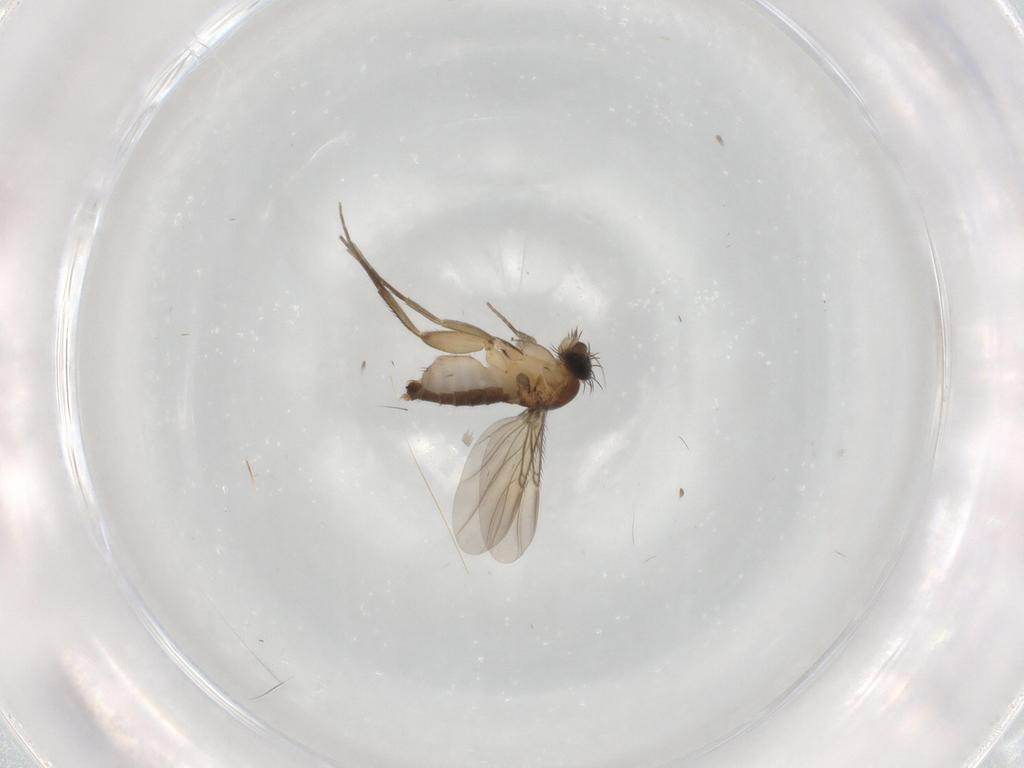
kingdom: Animalia
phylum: Arthropoda
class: Insecta
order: Diptera
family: Phoridae
